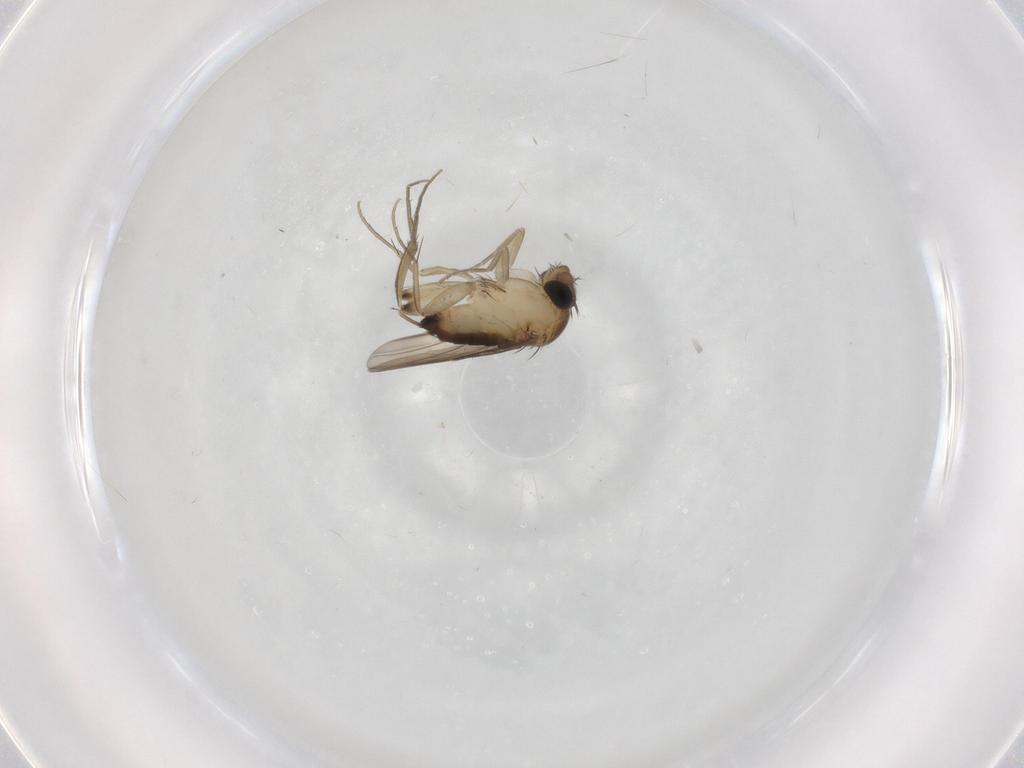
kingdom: Animalia
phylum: Arthropoda
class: Insecta
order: Diptera
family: Phoridae
